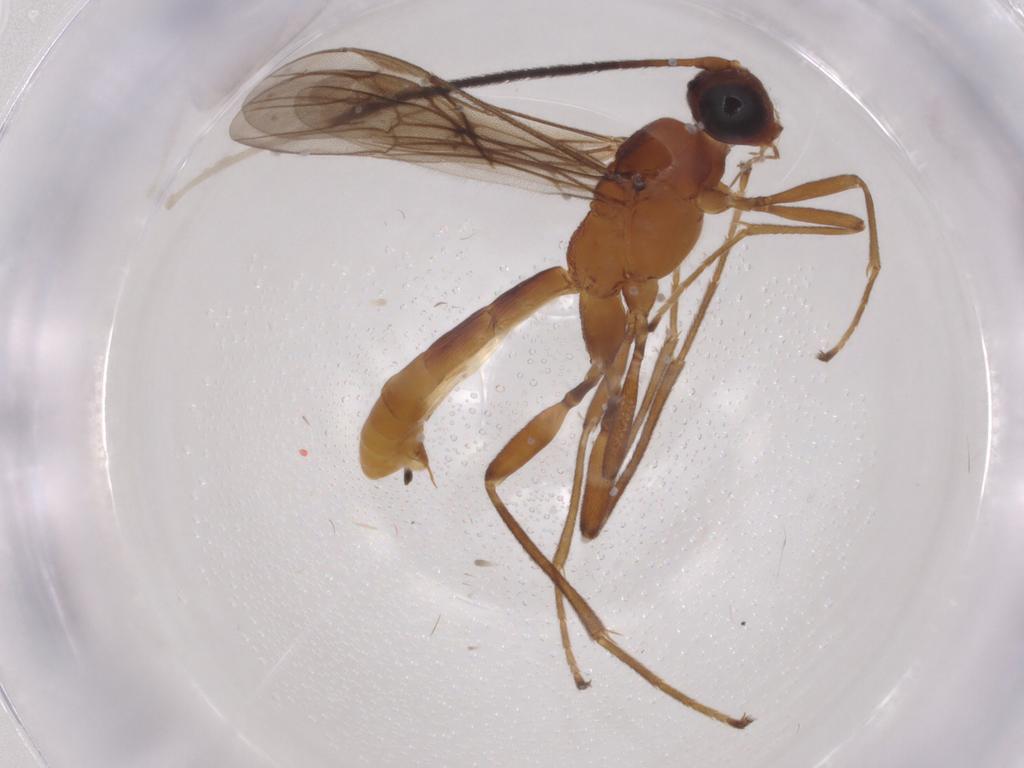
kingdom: Animalia
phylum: Arthropoda
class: Insecta
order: Hymenoptera
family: Braconidae
